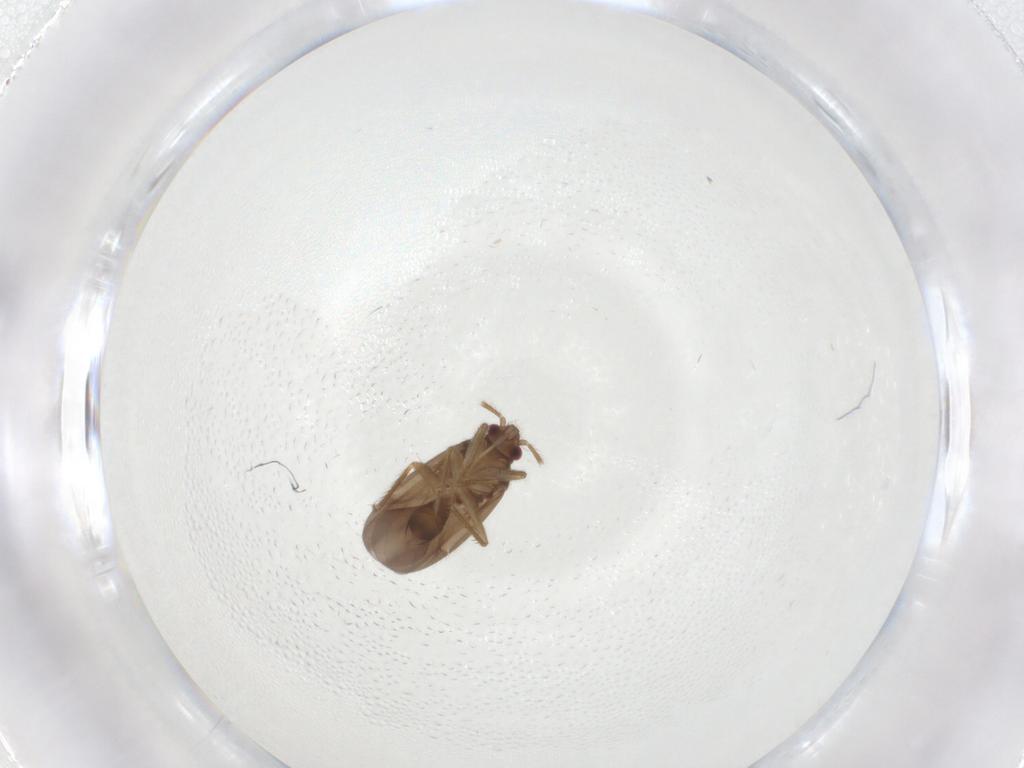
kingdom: Animalia
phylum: Arthropoda
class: Insecta
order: Hemiptera
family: Ceratocombidae
